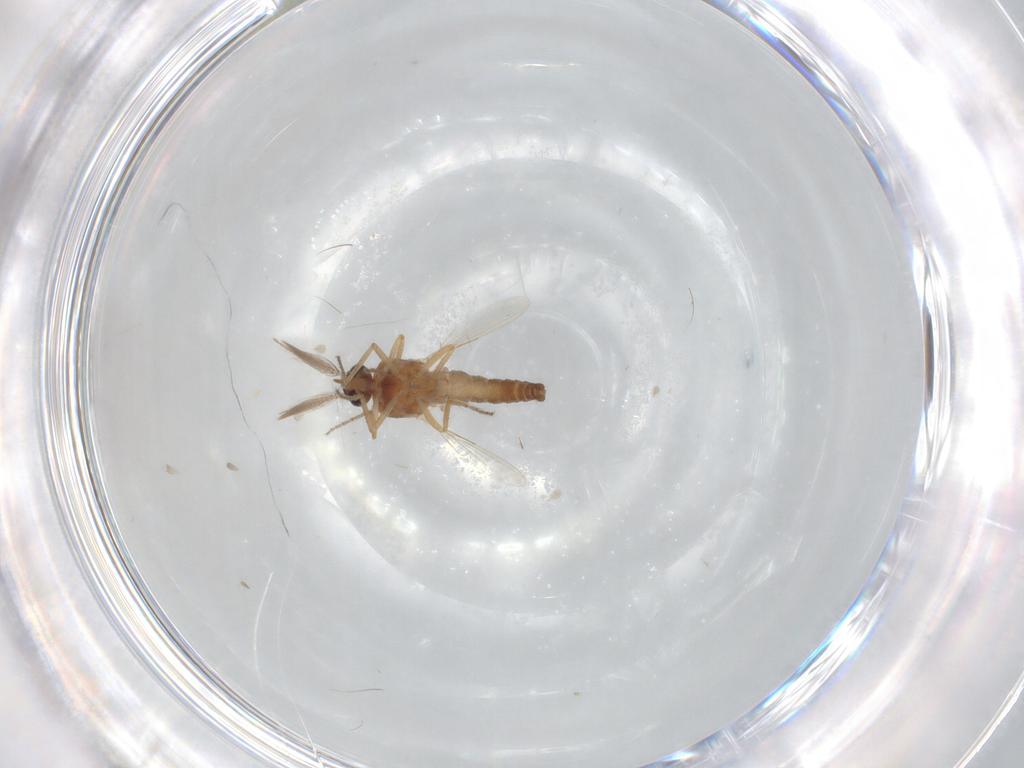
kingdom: Animalia
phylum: Arthropoda
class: Insecta
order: Diptera
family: Ceratopogonidae
